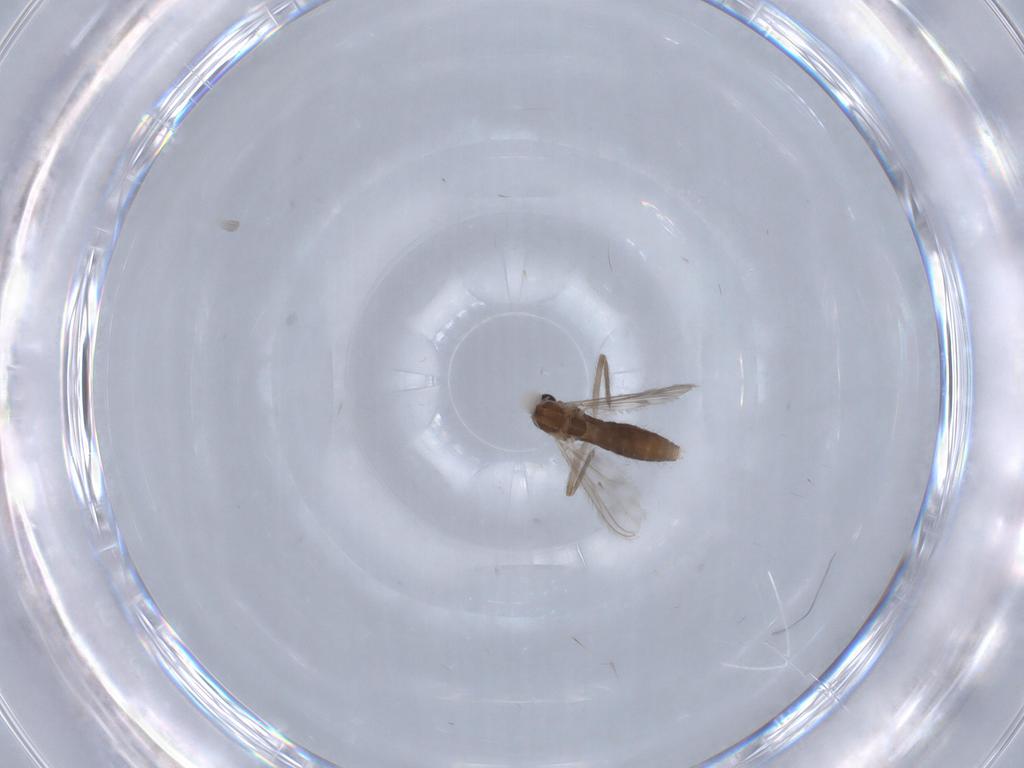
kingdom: Animalia
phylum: Arthropoda
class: Insecta
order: Diptera
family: Chironomidae
